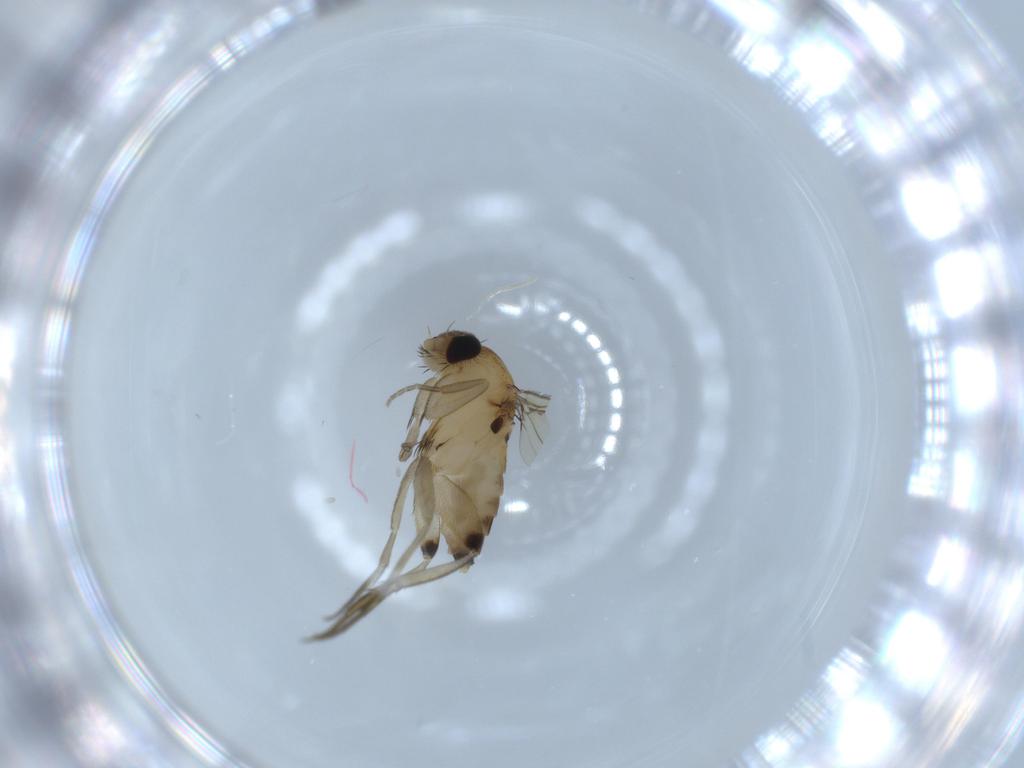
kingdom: Animalia
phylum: Arthropoda
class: Insecta
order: Diptera
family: Phoridae
